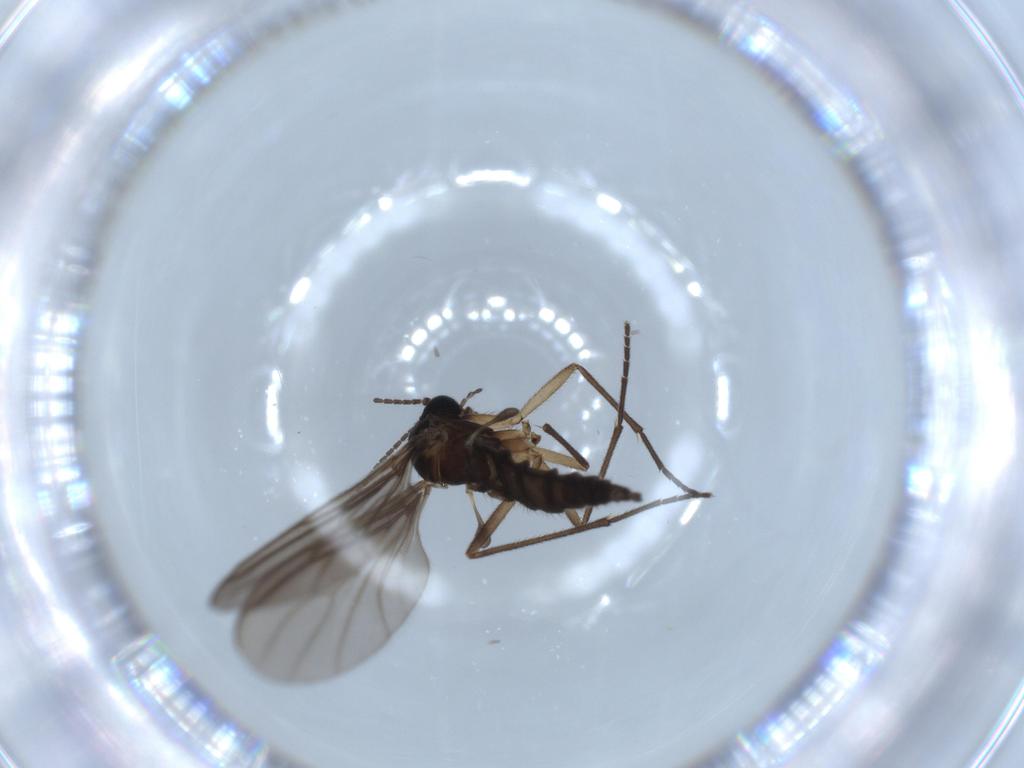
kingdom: Animalia
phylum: Arthropoda
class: Insecta
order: Diptera
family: Sciaridae
